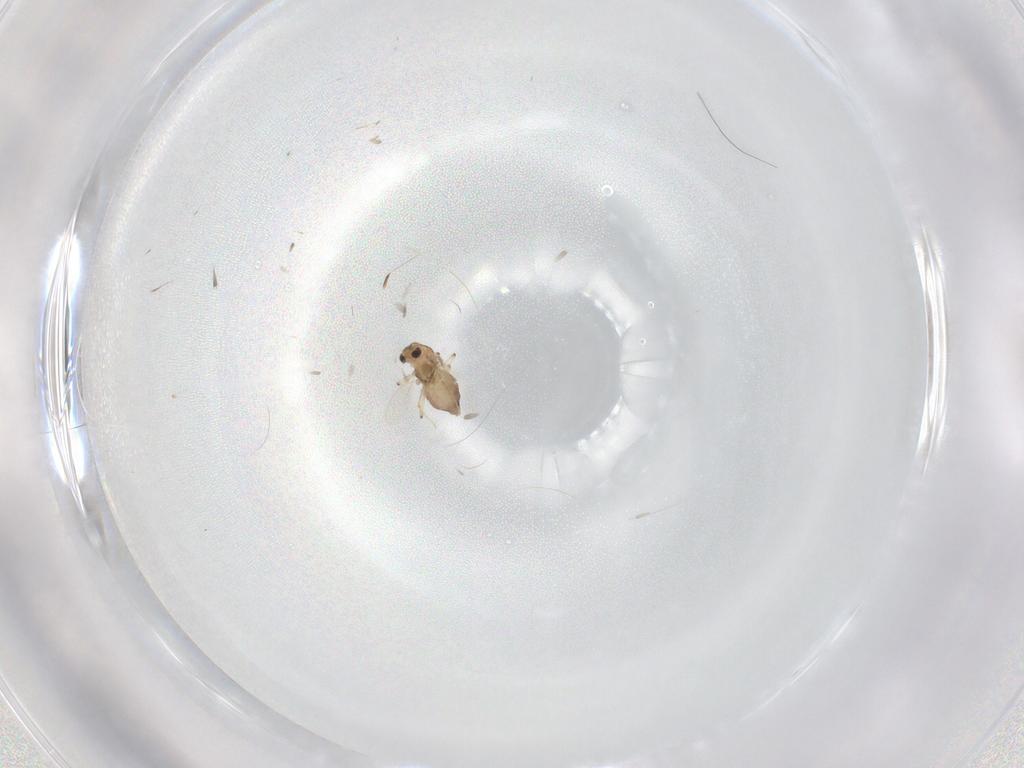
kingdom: Animalia
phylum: Arthropoda
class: Insecta
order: Diptera
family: Chironomidae
